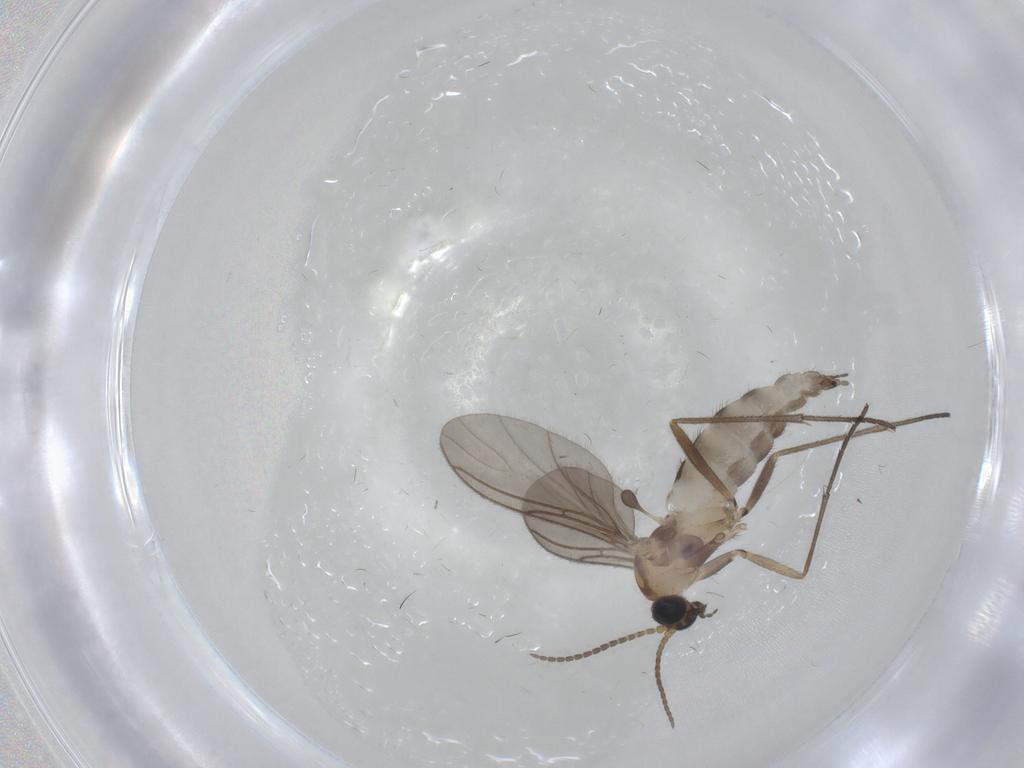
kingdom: Animalia
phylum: Arthropoda
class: Insecta
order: Diptera
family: Sciaridae
